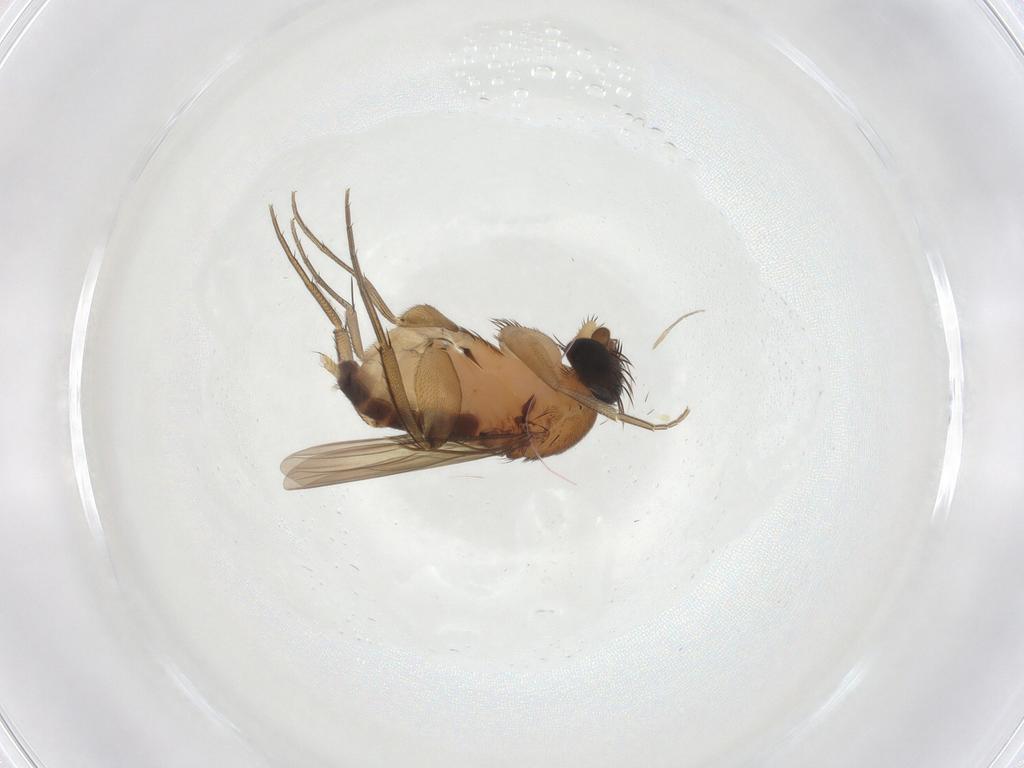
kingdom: Animalia
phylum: Arthropoda
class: Insecta
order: Diptera
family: Phoridae
